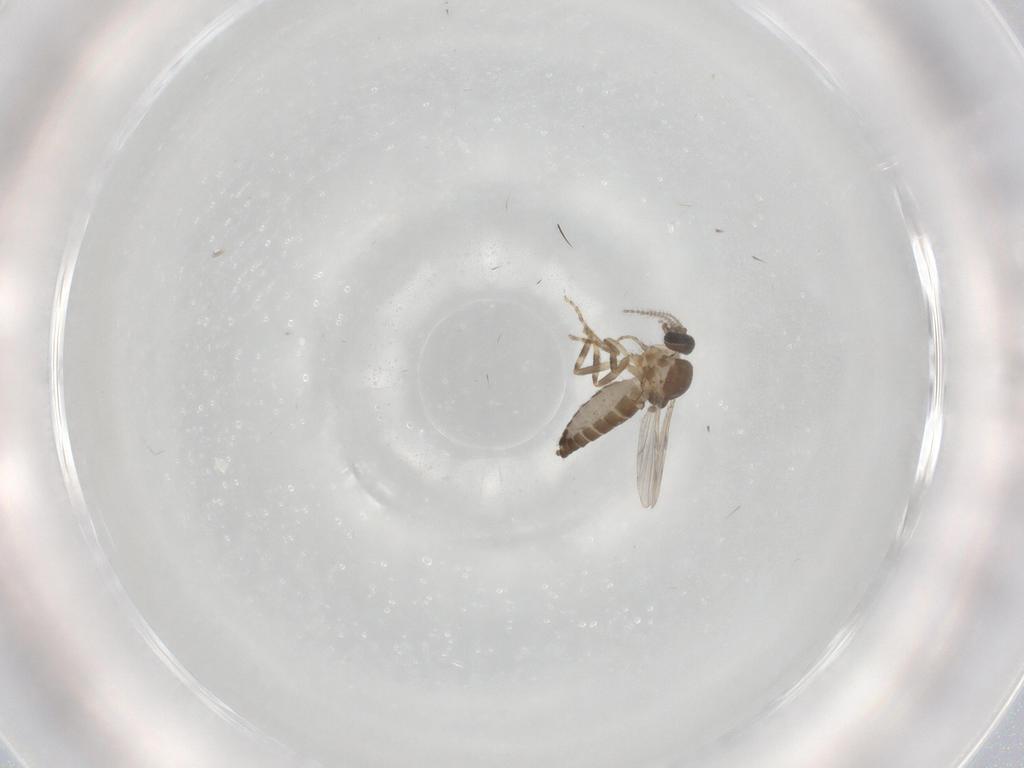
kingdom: Animalia
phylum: Arthropoda
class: Insecta
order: Diptera
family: Ceratopogonidae
